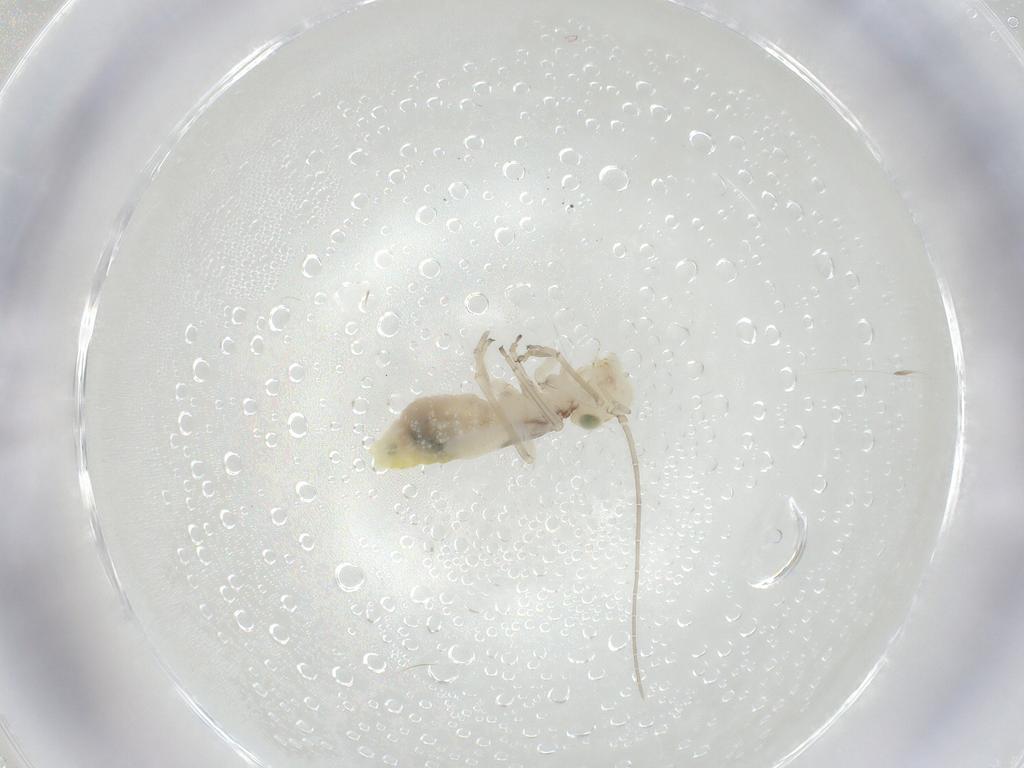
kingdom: Animalia
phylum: Arthropoda
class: Insecta
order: Psocodea
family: Caeciliusidae
